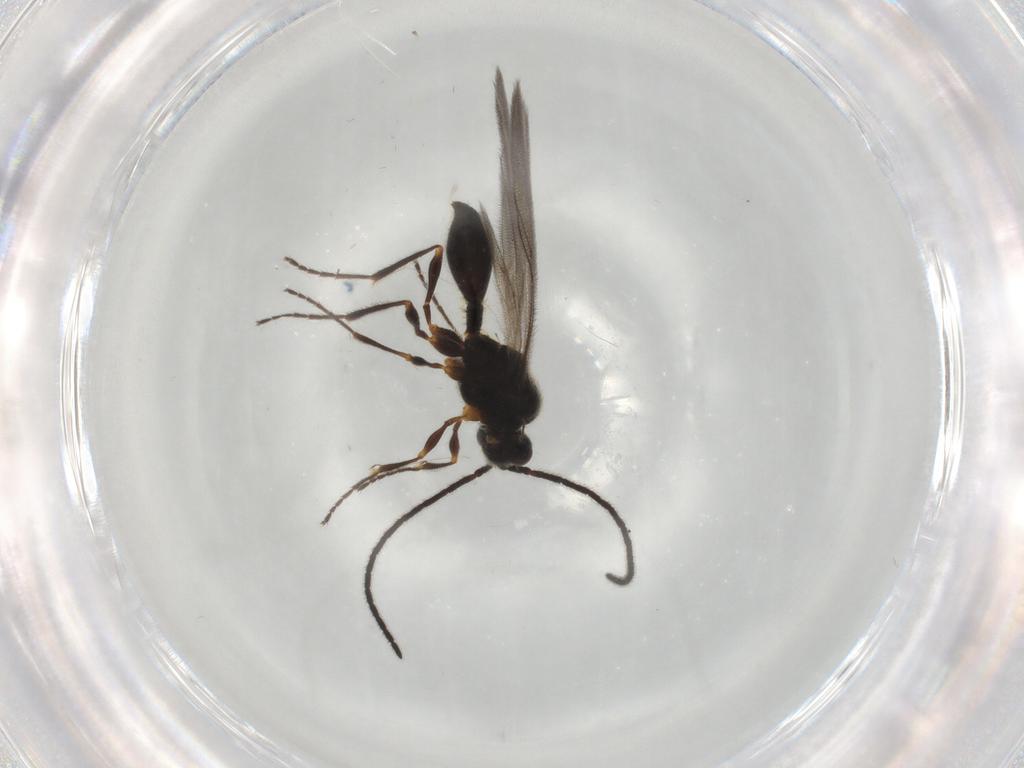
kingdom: Animalia
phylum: Arthropoda
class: Insecta
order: Hymenoptera
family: Diapriidae
